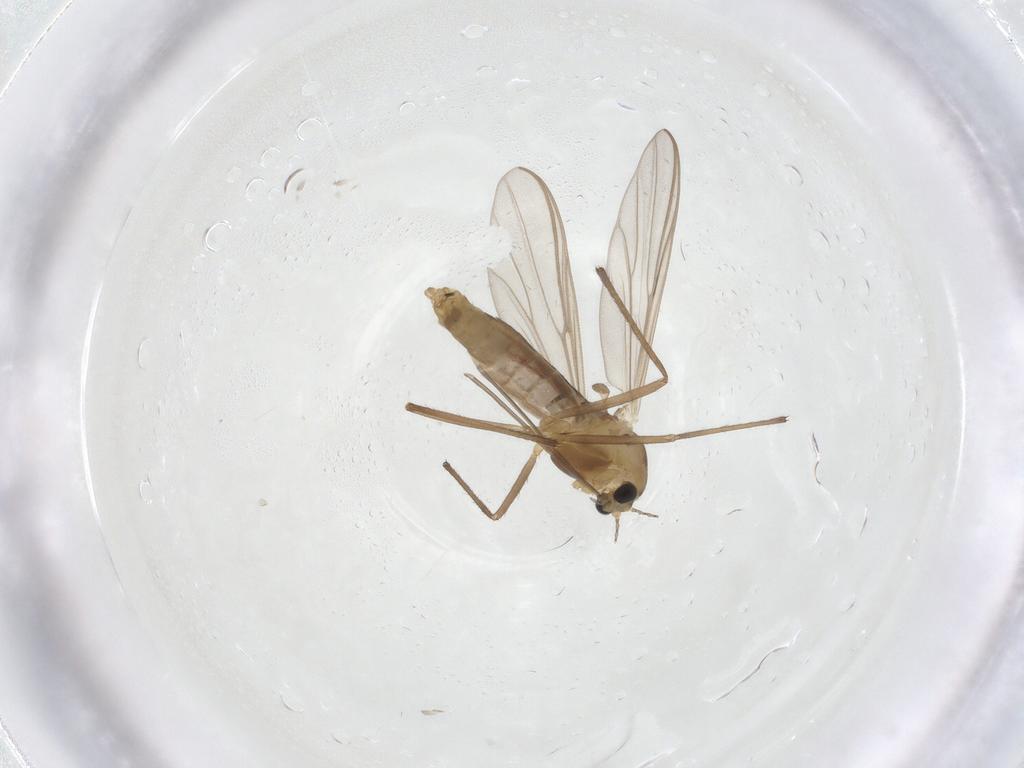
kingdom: Animalia
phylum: Arthropoda
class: Insecta
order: Diptera
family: Chironomidae
